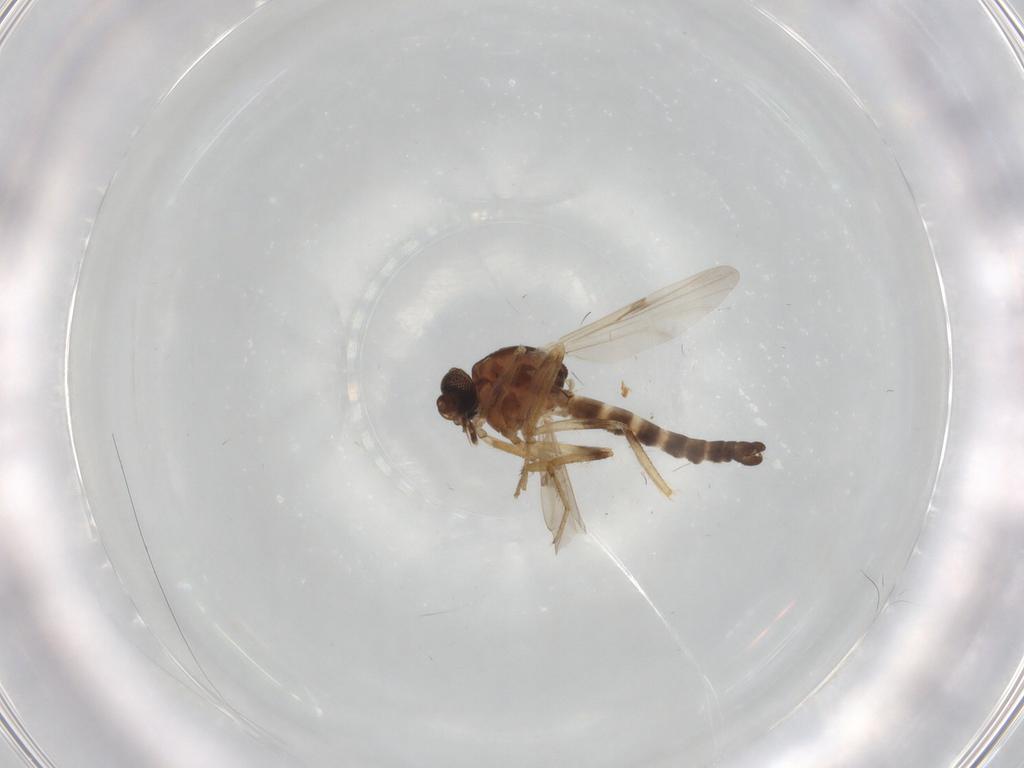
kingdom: Animalia
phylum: Arthropoda
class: Insecta
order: Diptera
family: Ceratopogonidae
